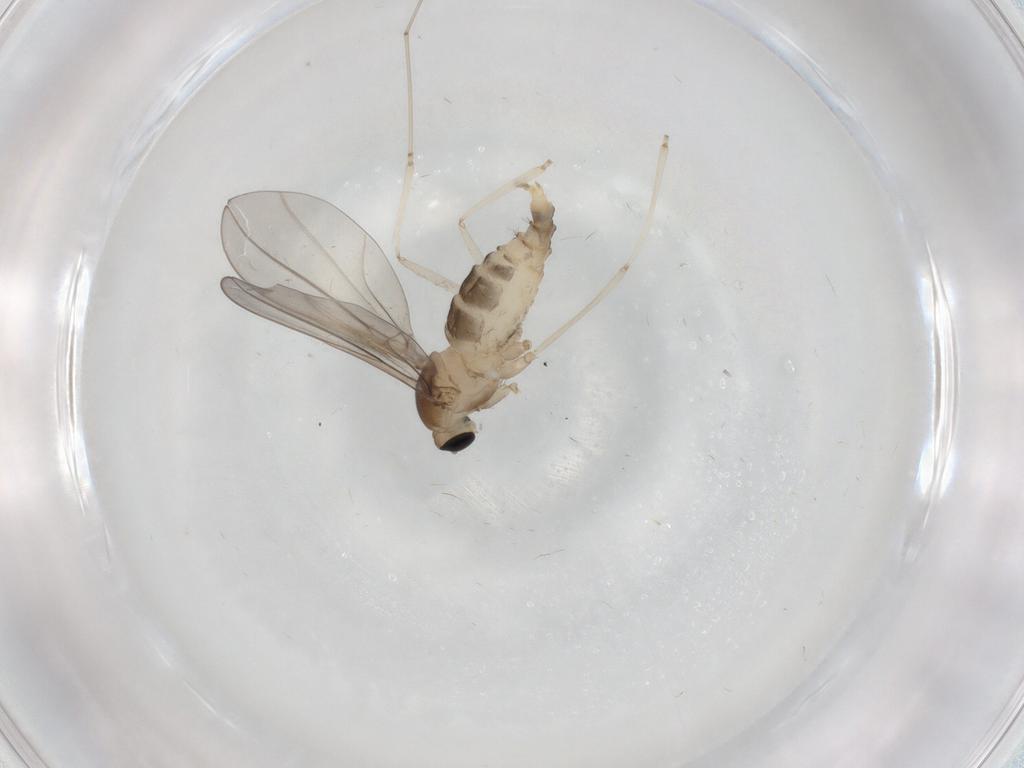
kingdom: Animalia
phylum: Arthropoda
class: Insecta
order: Diptera
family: Cecidomyiidae
